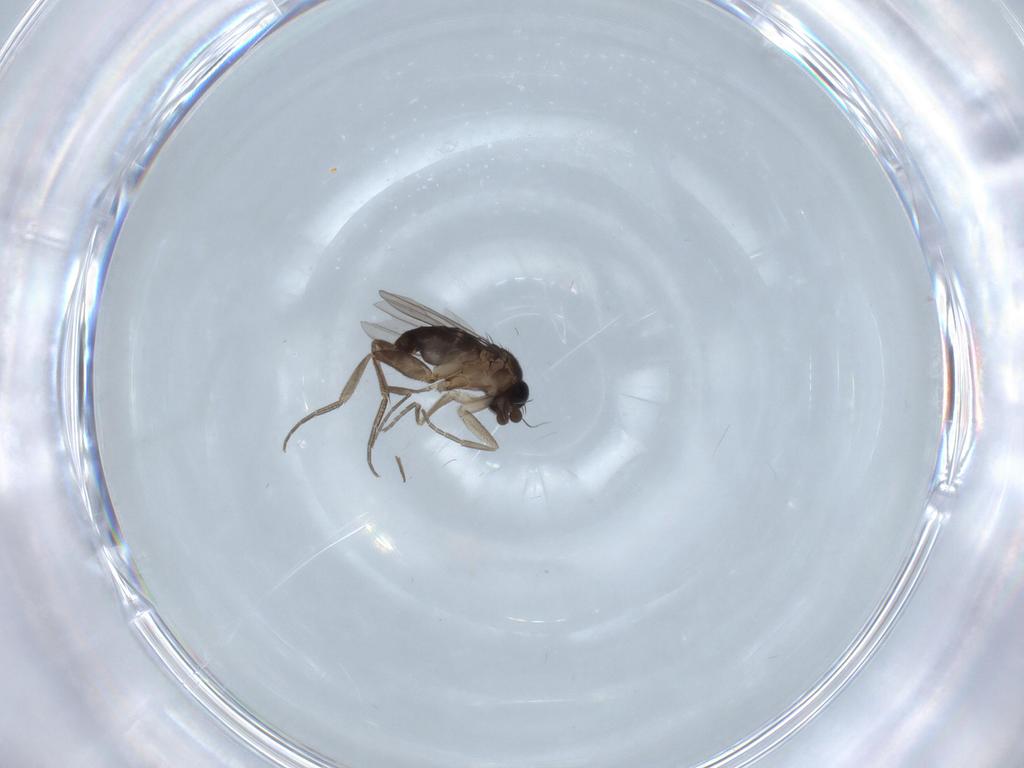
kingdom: Animalia
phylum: Arthropoda
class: Insecta
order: Diptera
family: Phoridae
